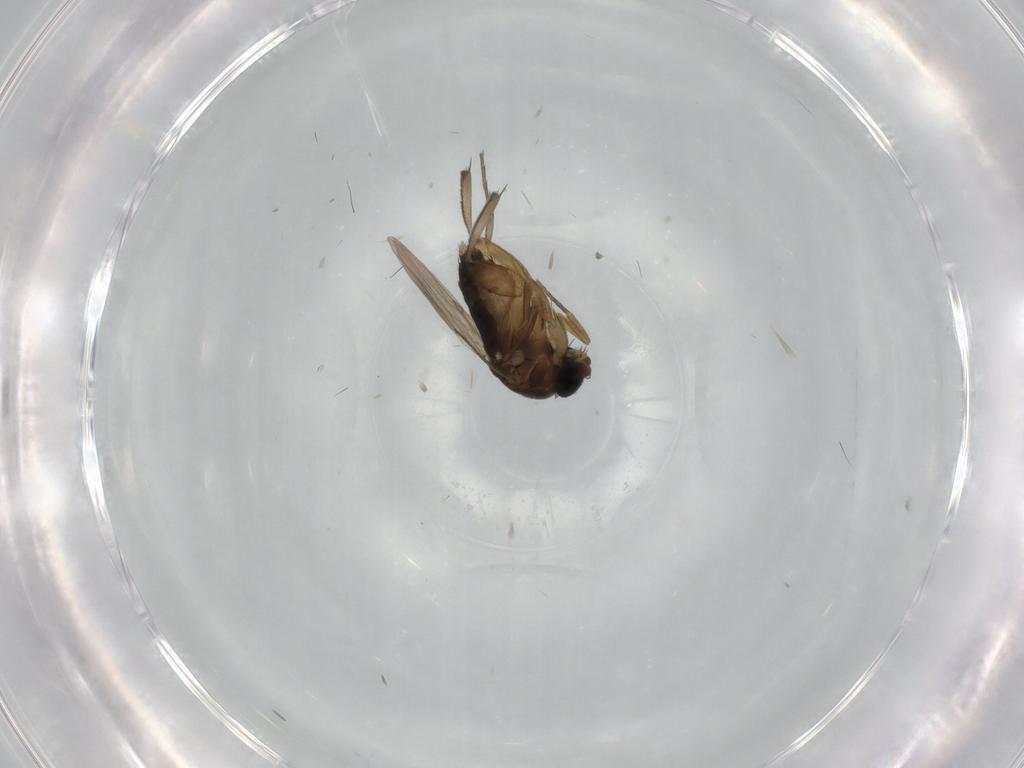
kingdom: Animalia
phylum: Arthropoda
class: Insecta
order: Diptera
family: Phoridae
